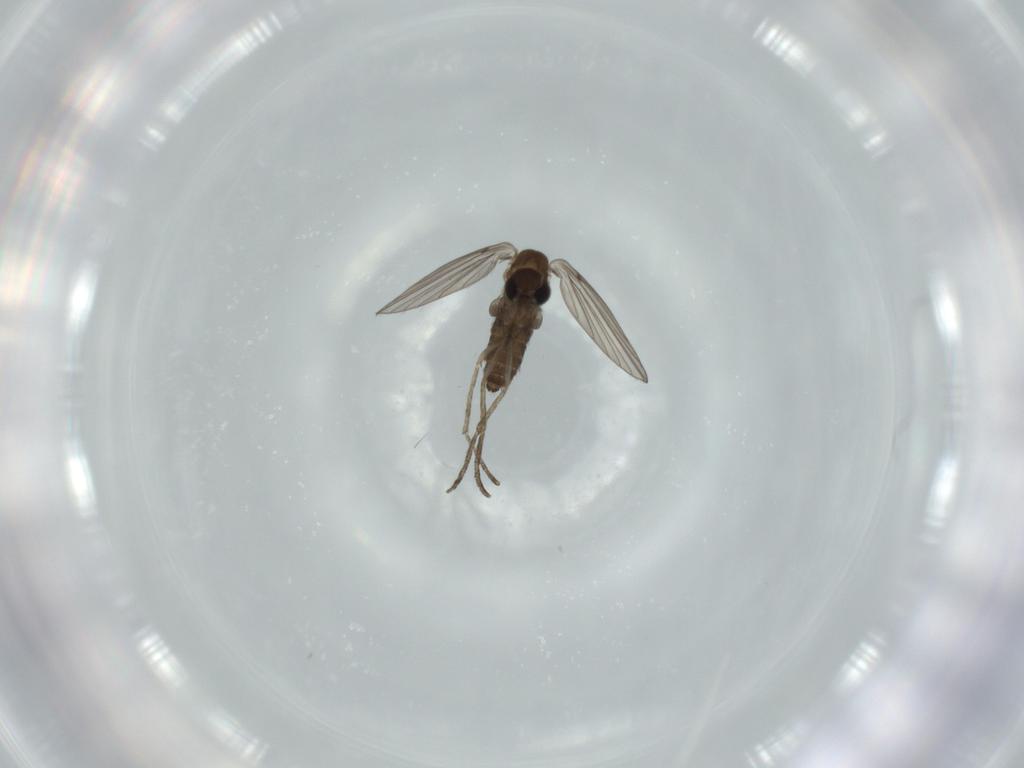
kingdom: Animalia
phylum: Arthropoda
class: Insecta
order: Diptera
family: Psychodidae
